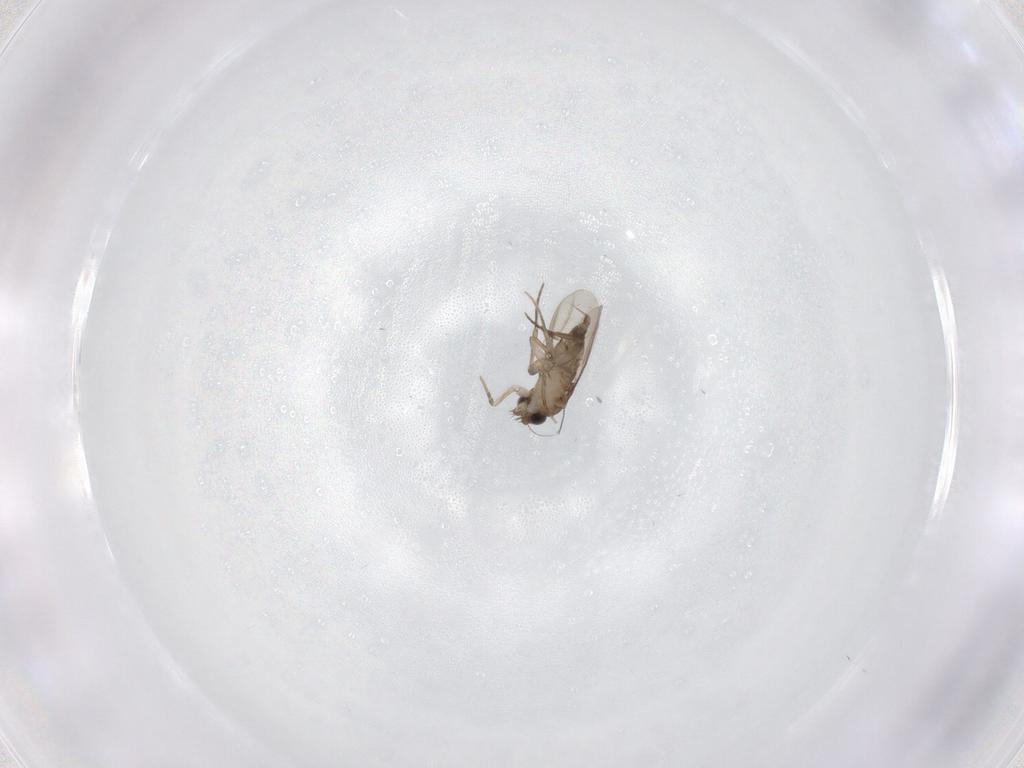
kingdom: Animalia
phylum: Arthropoda
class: Insecta
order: Diptera
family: Phoridae
